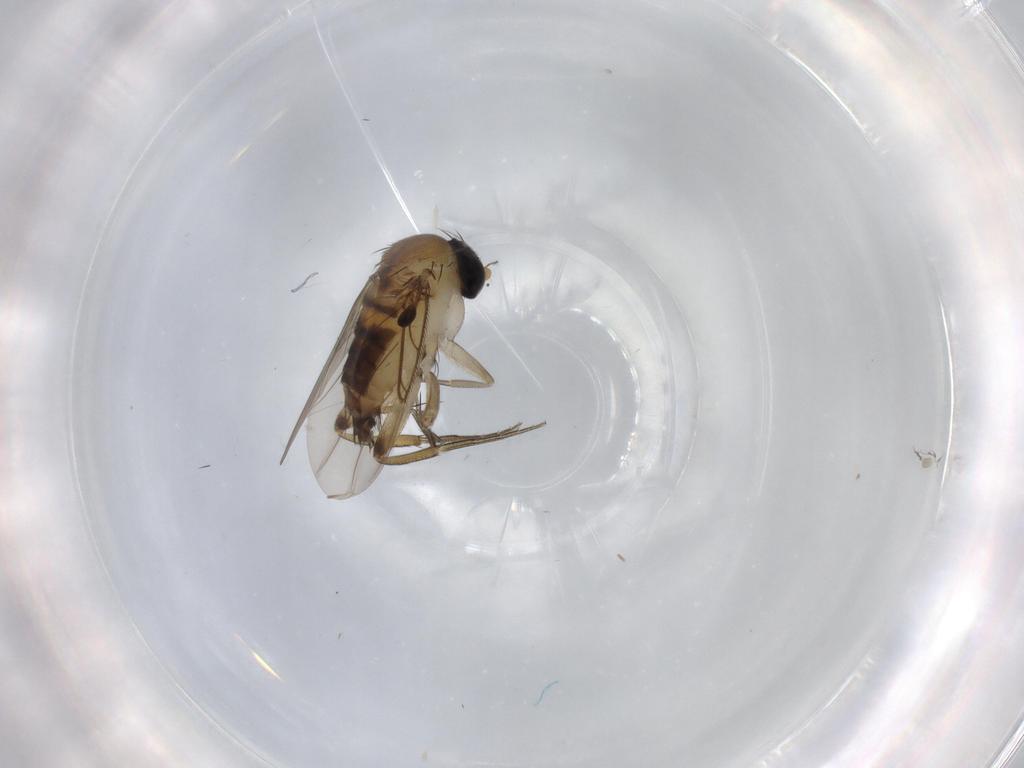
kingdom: Animalia
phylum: Arthropoda
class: Insecta
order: Diptera
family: Phoridae
